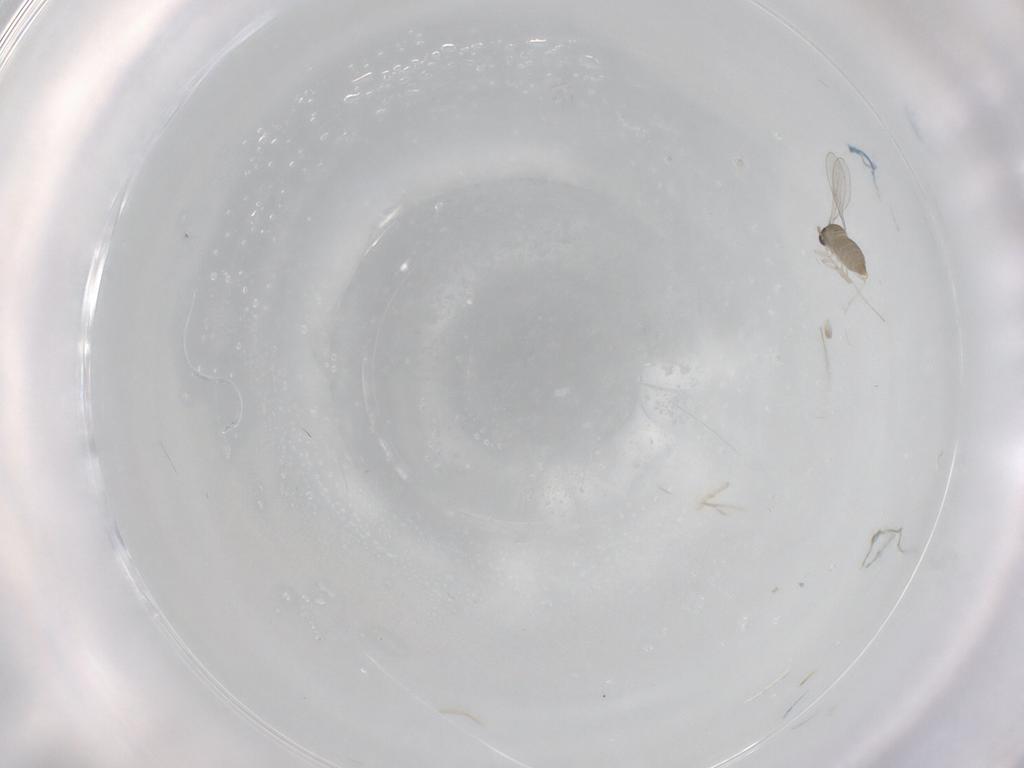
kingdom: Animalia
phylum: Arthropoda
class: Insecta
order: Diptera
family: Cecidomyiidae
